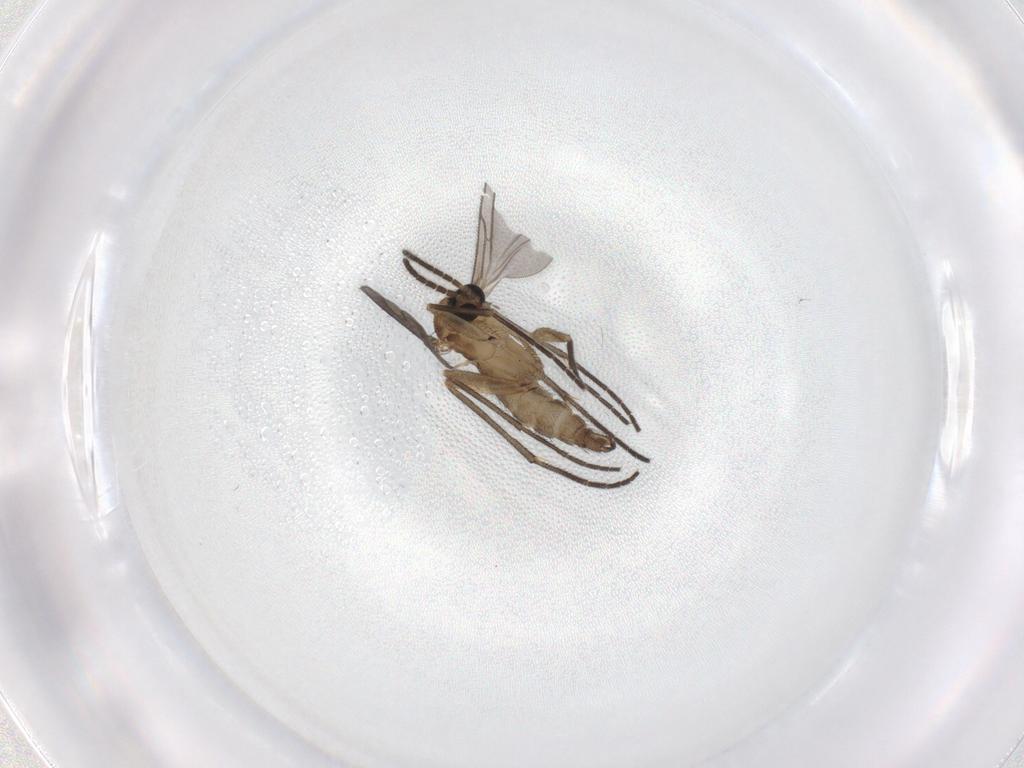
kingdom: Animalia
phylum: Arthropoda
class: Insecta
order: Diptera
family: Sciaridae
